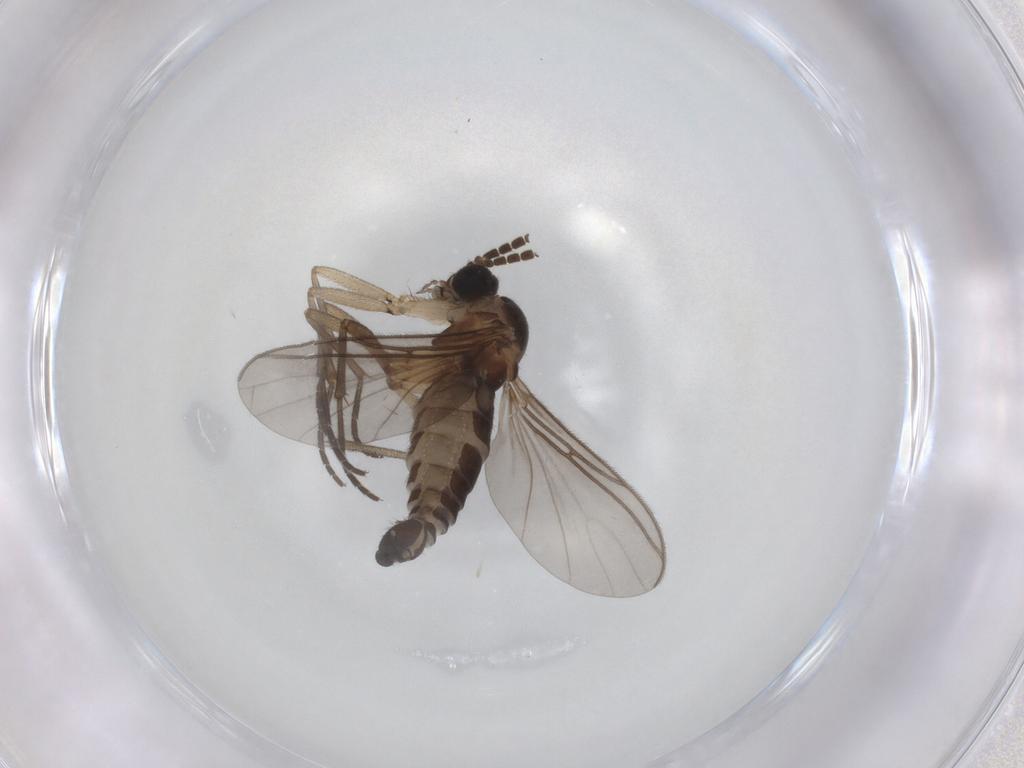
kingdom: Animalia
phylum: Arthropoda
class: Insecta
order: Diptera
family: Sciaridae
